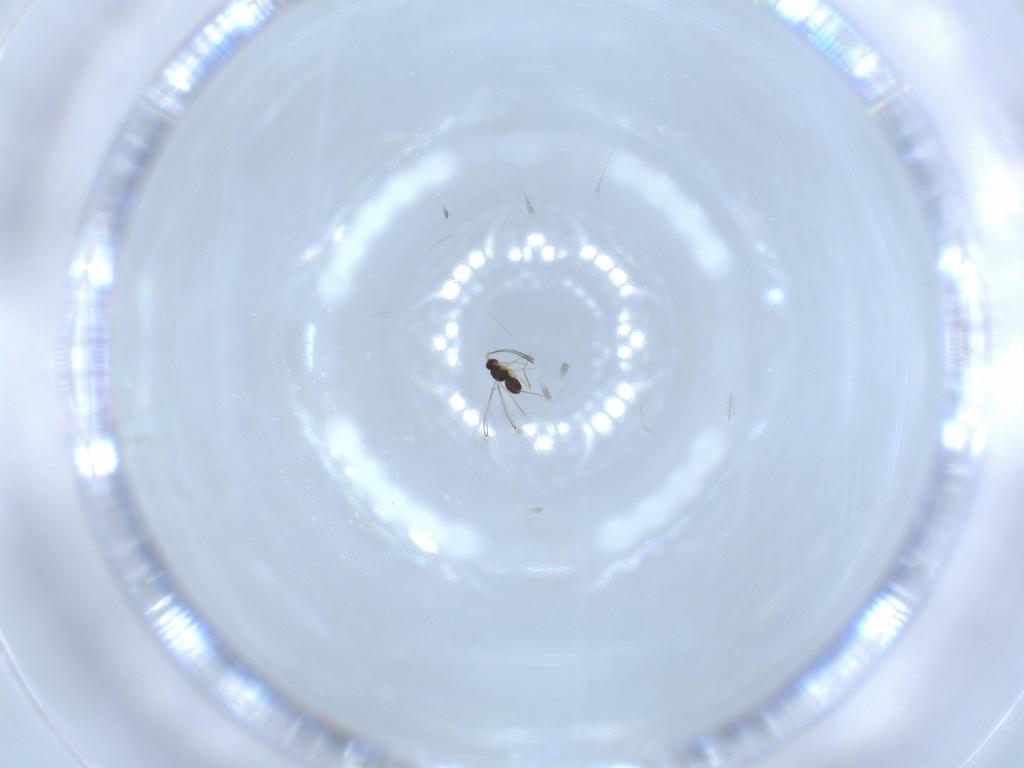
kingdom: Animalia
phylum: Arthropoda
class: Insecta
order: Hymenoptera
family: Mymaridae
